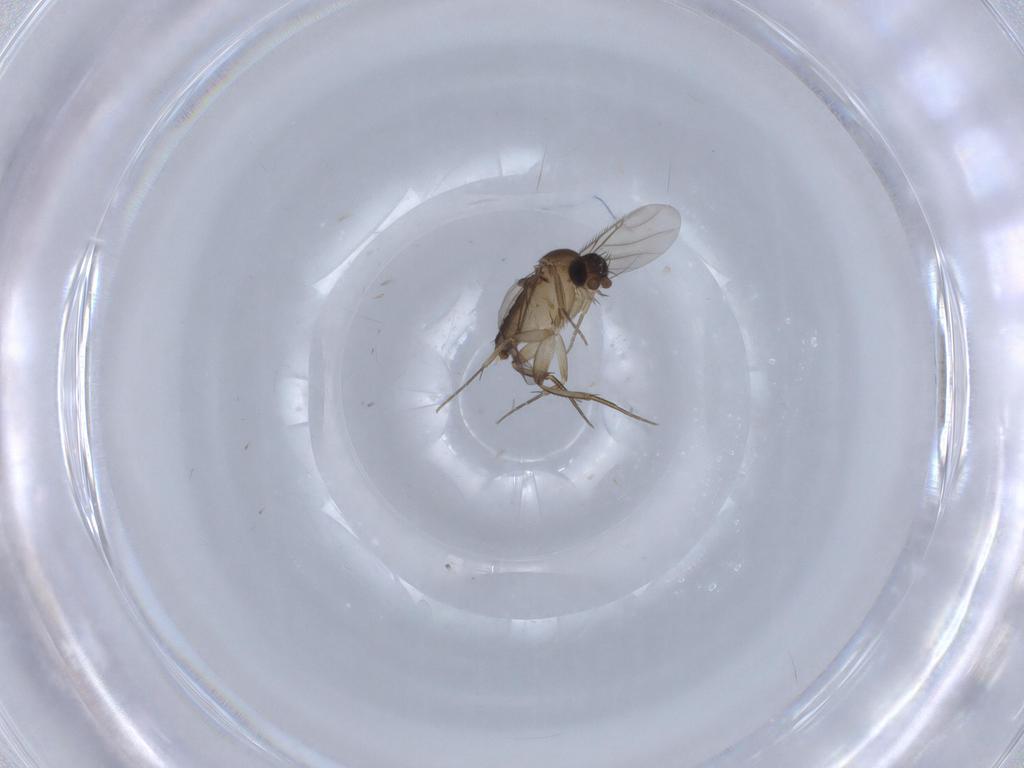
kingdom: Animalia
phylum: Arthropoda
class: Insecta
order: Diptera
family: Phoridae
